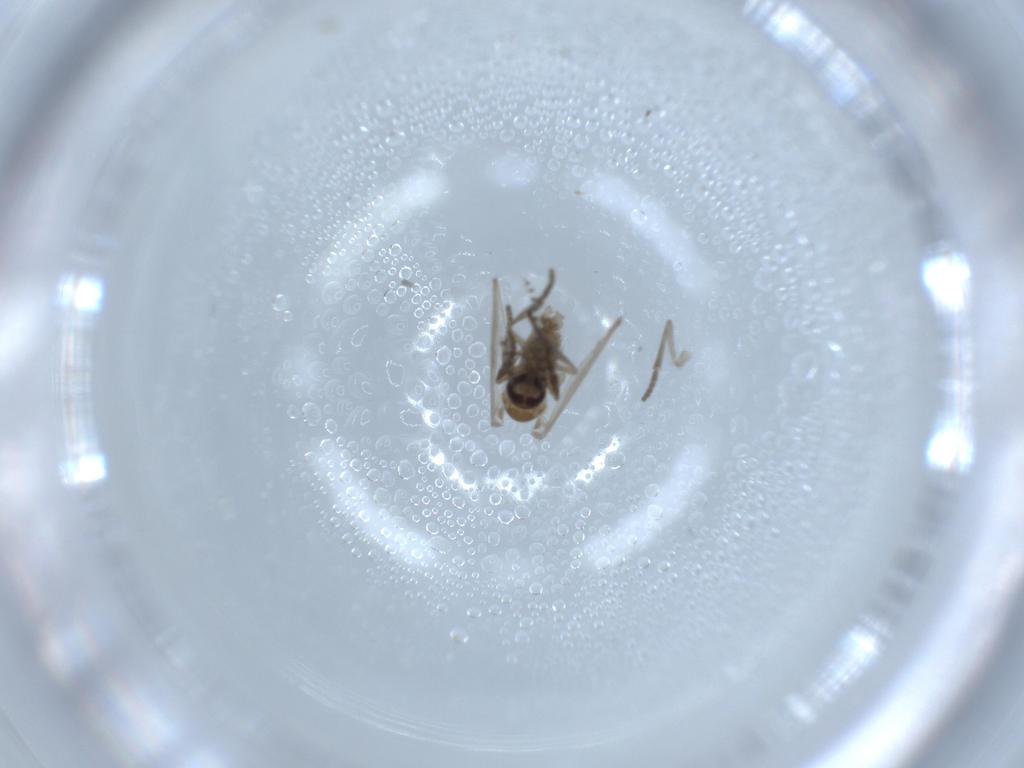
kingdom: Animalia
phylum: Arthropoda
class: Insecta
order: Diptera
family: Psychodidae
